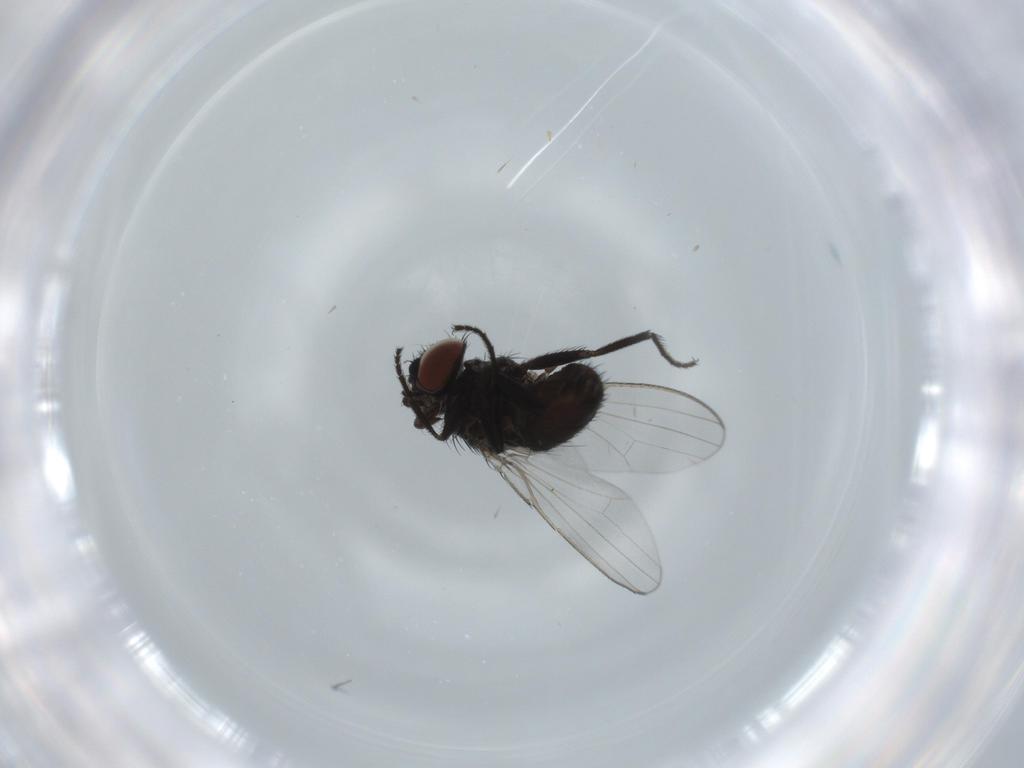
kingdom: Animalia
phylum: Arthropoda
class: Insecta
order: Diptera
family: Milichiidae
